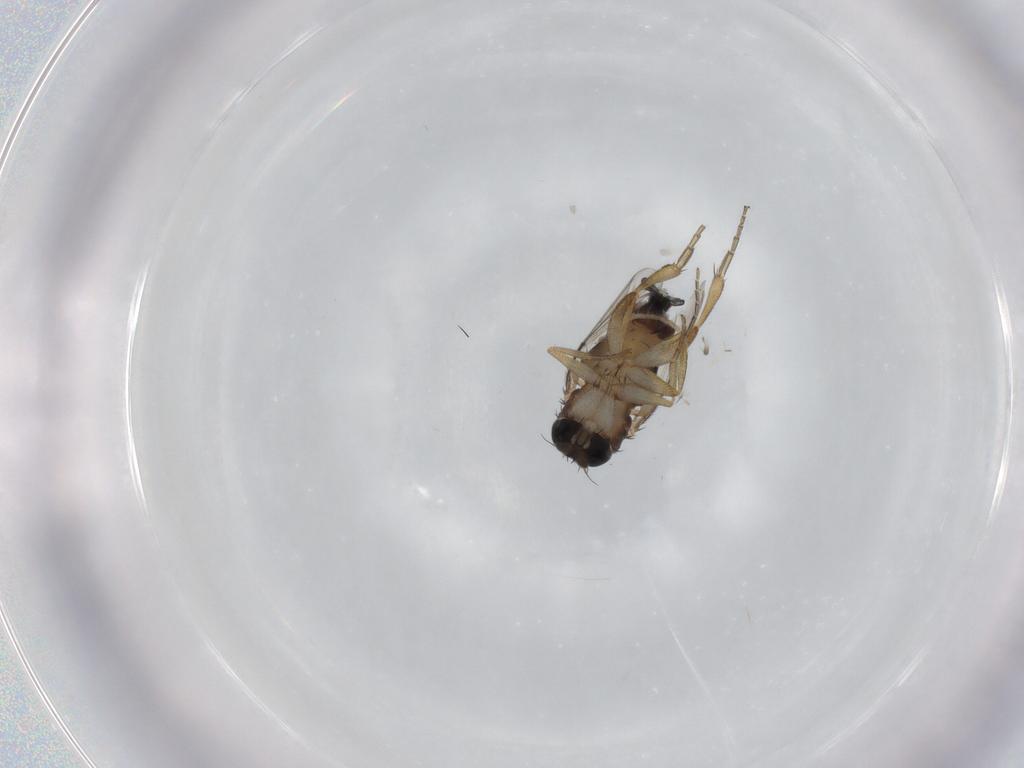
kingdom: Animalia
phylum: Arthropoda
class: Insecta
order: Diptera
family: Phoridae
